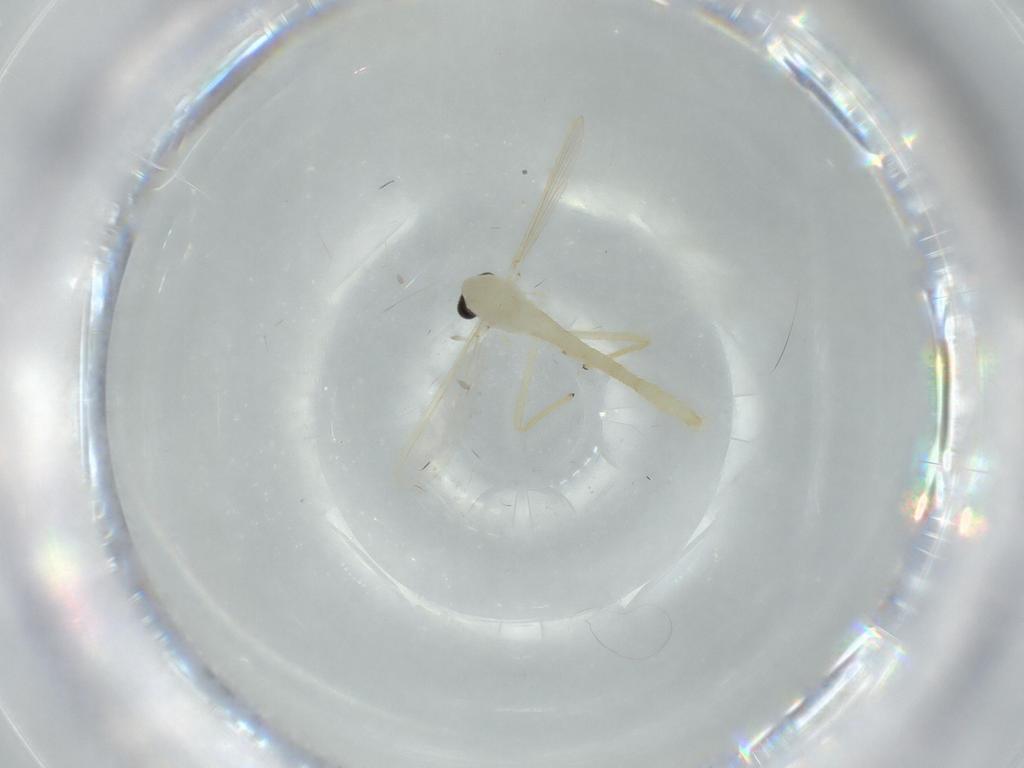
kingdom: Animalia
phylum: Arthropoda
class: Insecta
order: Diptera
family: Chironomidae
